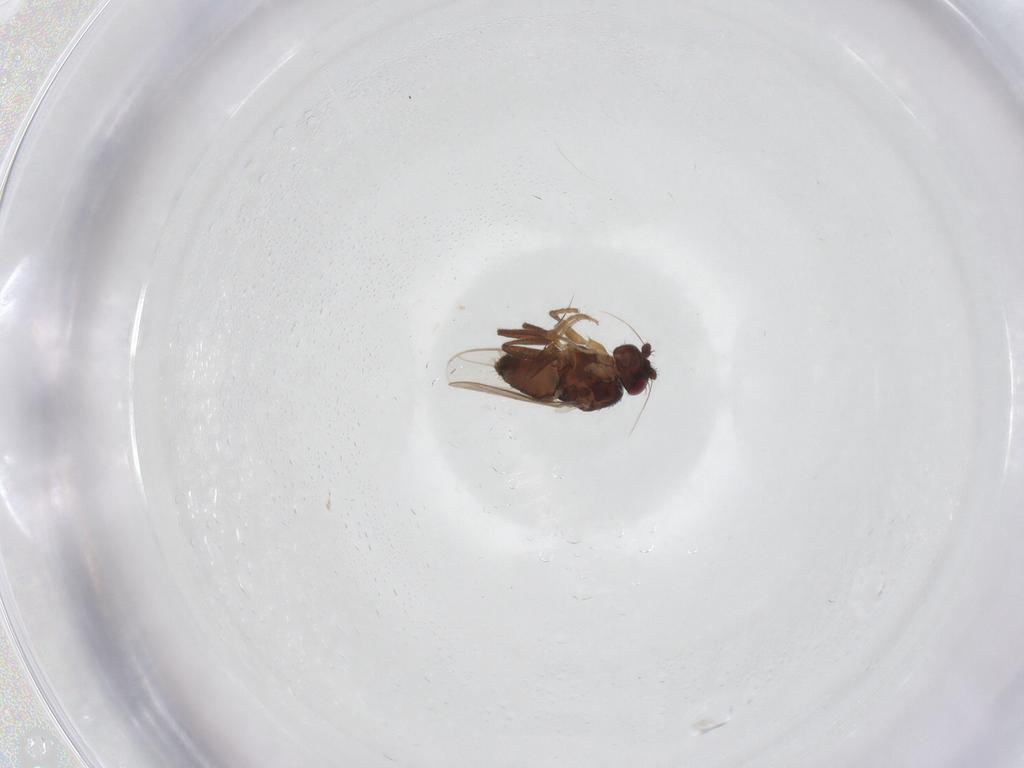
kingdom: Animalia
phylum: Arthropoda
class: Insecta
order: Diptera
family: Sphaeroceridae
